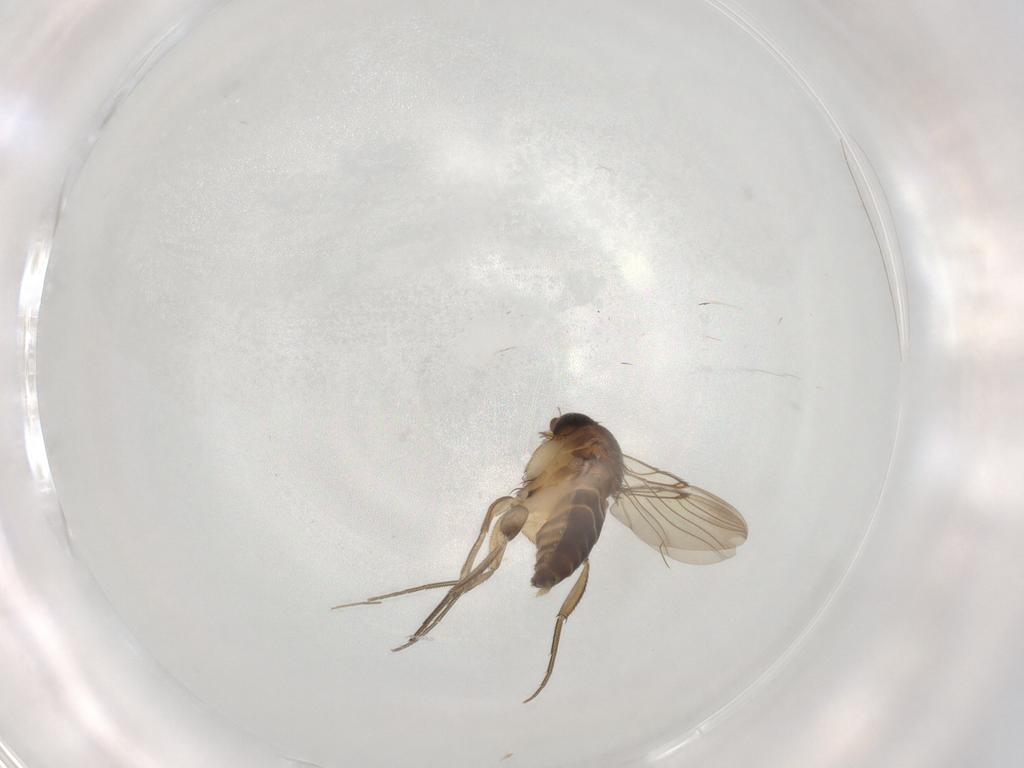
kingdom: Animalia
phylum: Arthropoda
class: Insecta
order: Diptera
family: Phoridae
